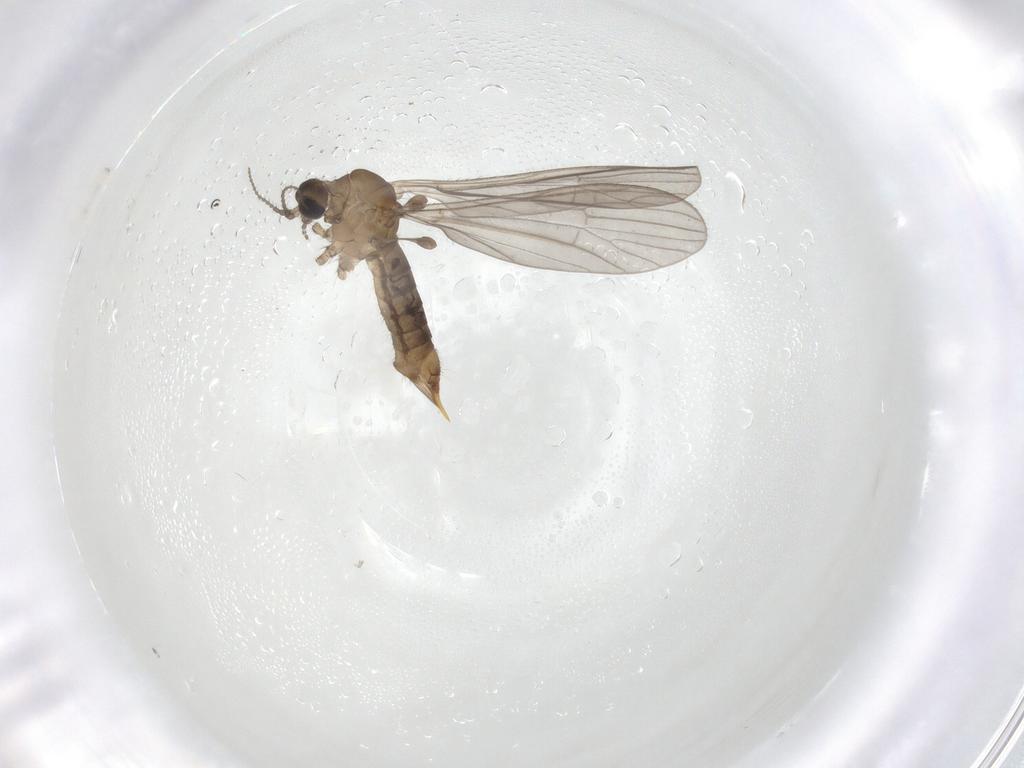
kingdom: Animalia
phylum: Arthropoda
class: Insecta
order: Diptera
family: Limoniidae
